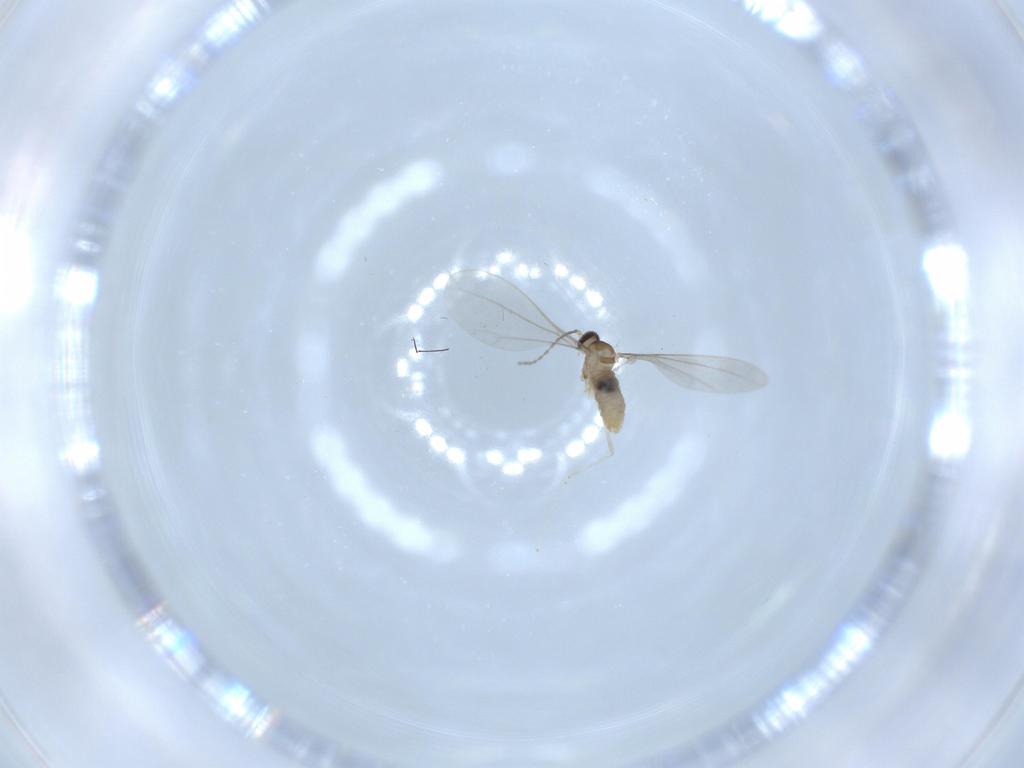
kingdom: Animalia
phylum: Arthropoda
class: Insecta
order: Diptera
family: Cecidomyiidae
